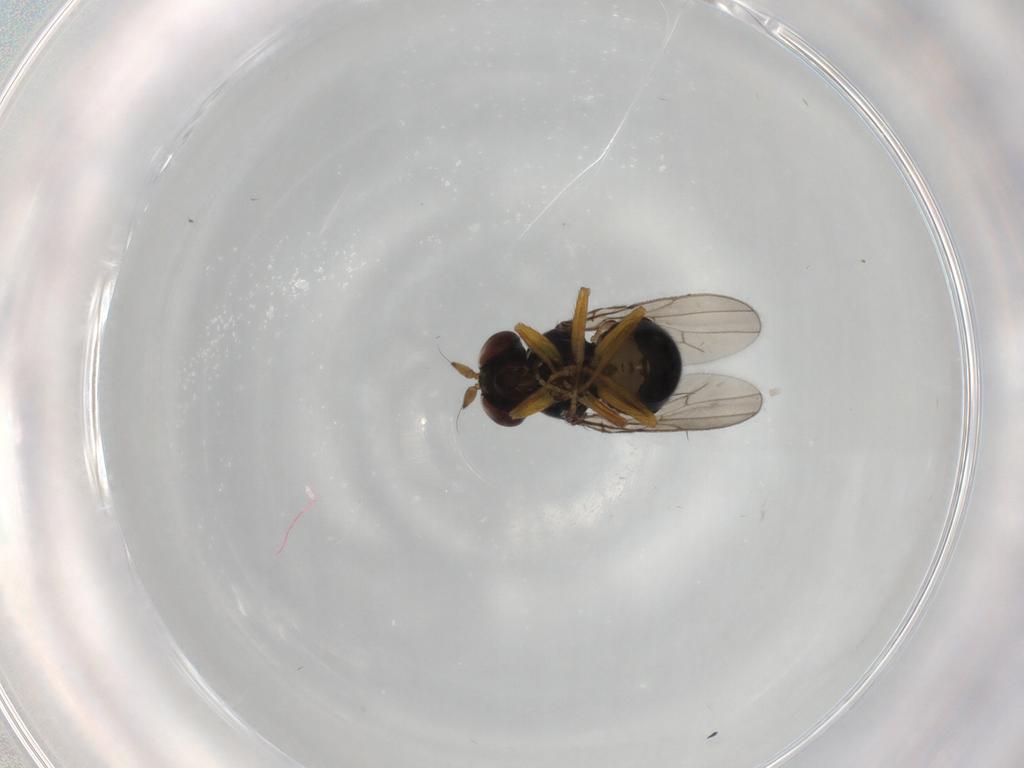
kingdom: Animalia
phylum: Arthropoda
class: Insecta
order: Diptera
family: Ephydridae
